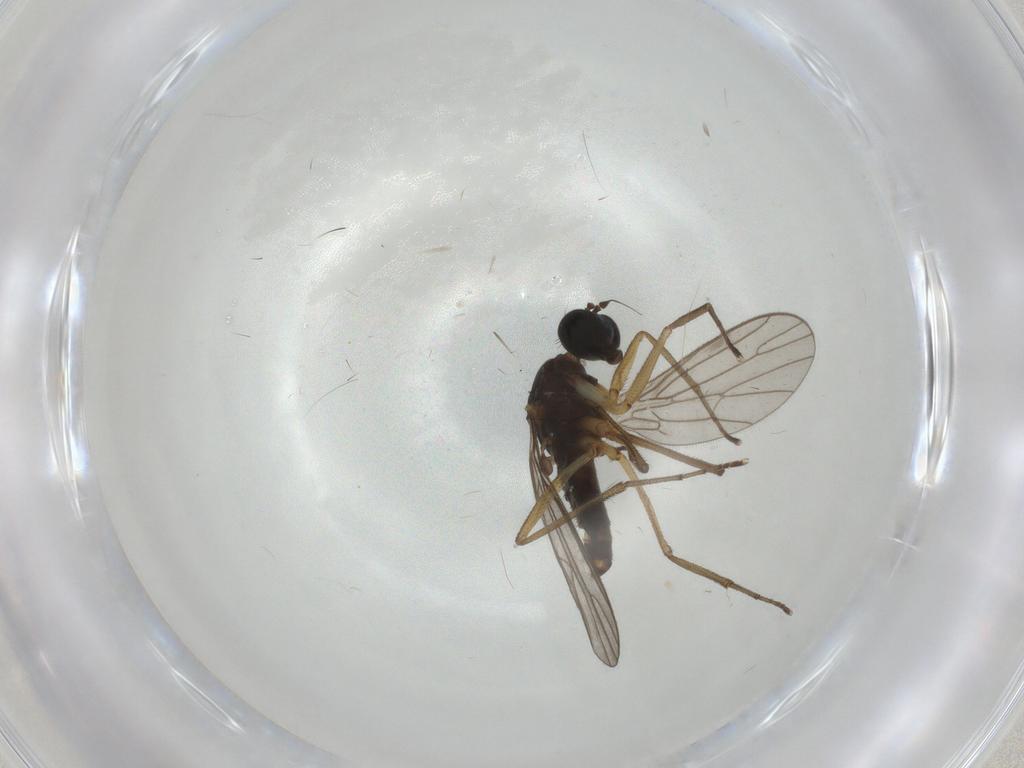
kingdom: Animalia
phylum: Arthropoda
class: Insecta
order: Diptera
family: Empididae
